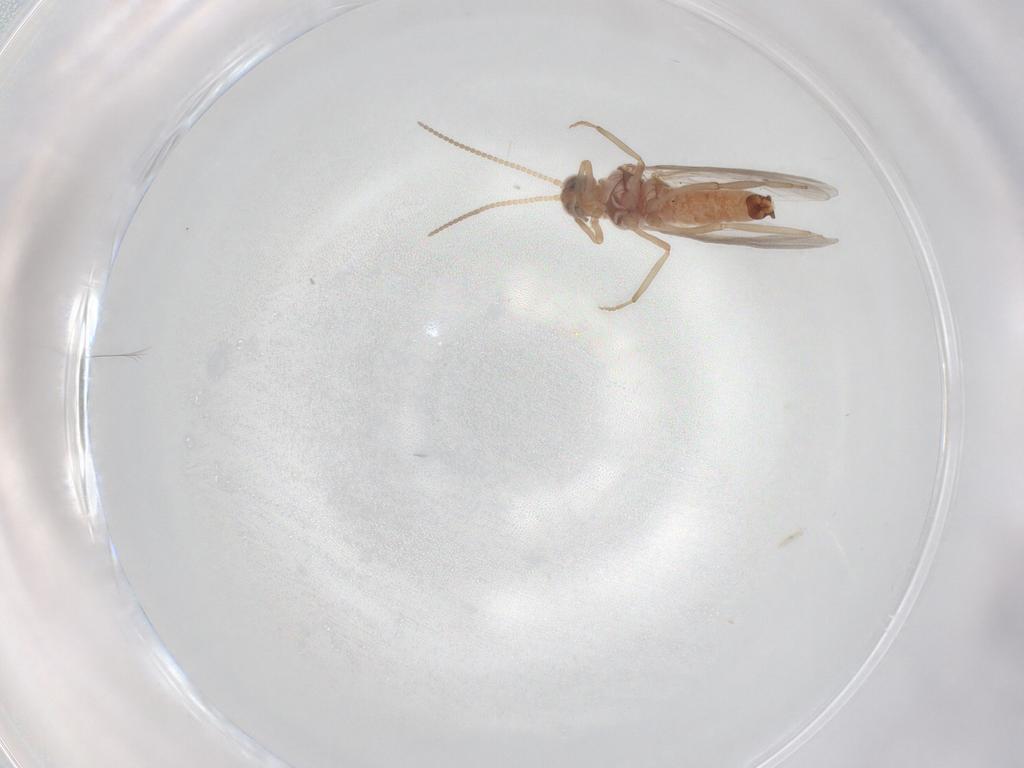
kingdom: Animalia
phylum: Arthropoda
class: Insecta
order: Neuroptera
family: Coniopterygidae
